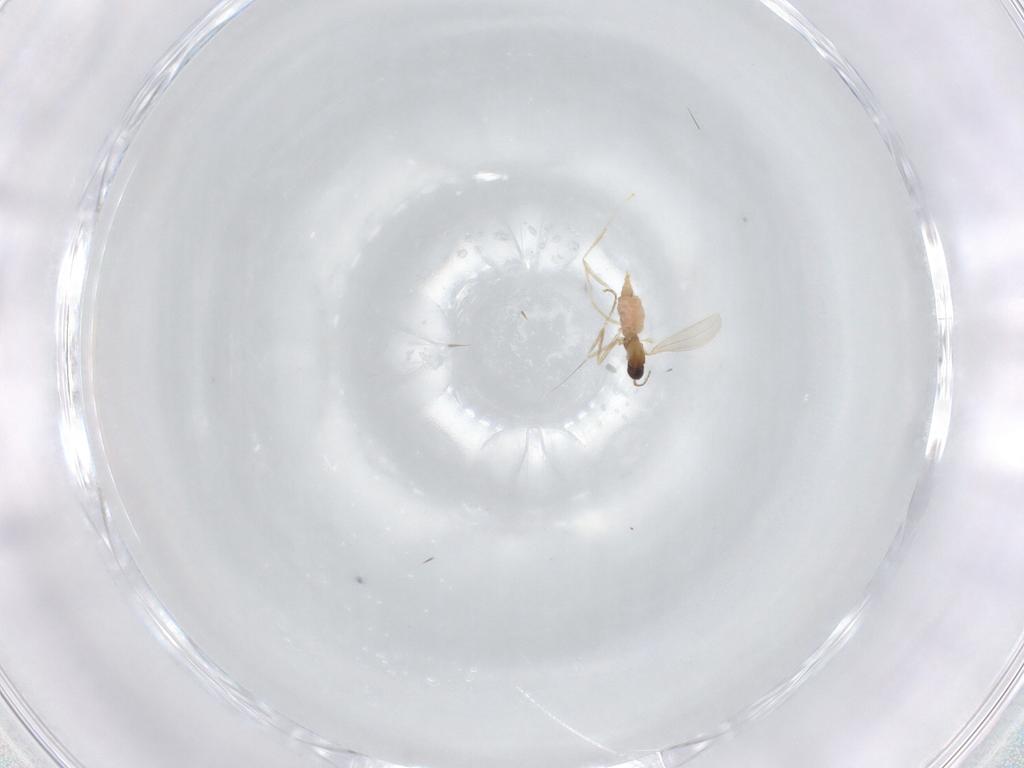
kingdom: Animalia
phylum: Arthropoda
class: Insecta
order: Diptera
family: Cecidomyiidae
